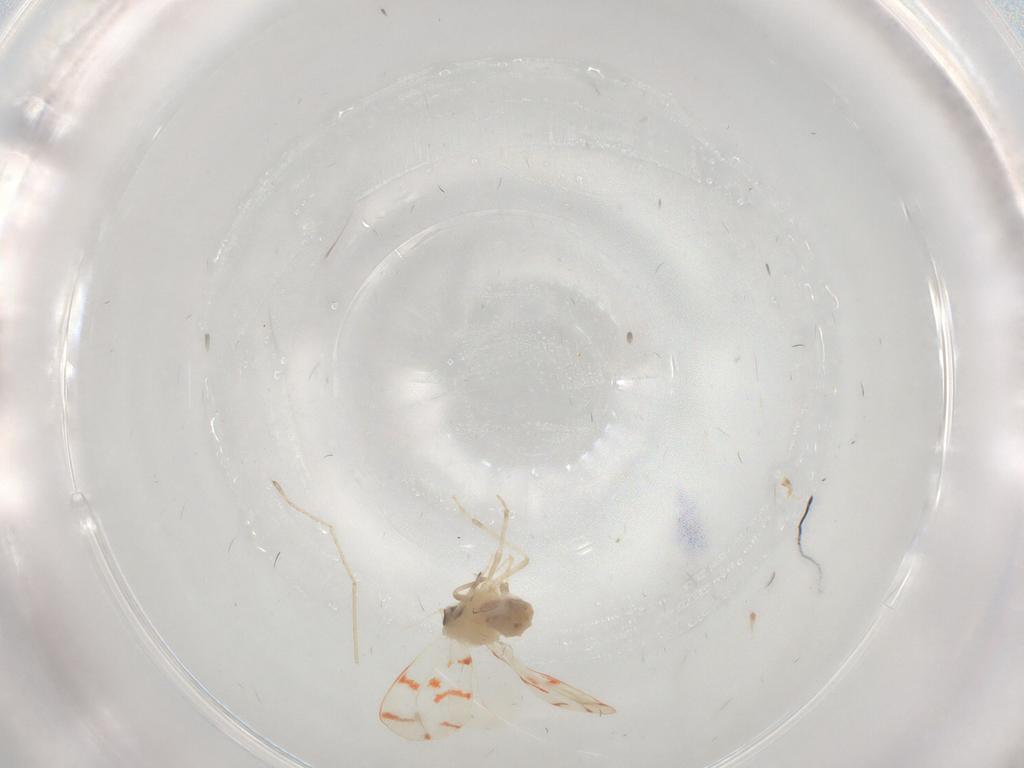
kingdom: Animalia
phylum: Arthropoda
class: Insecta
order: Hemiptera
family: Aleyrodidae
